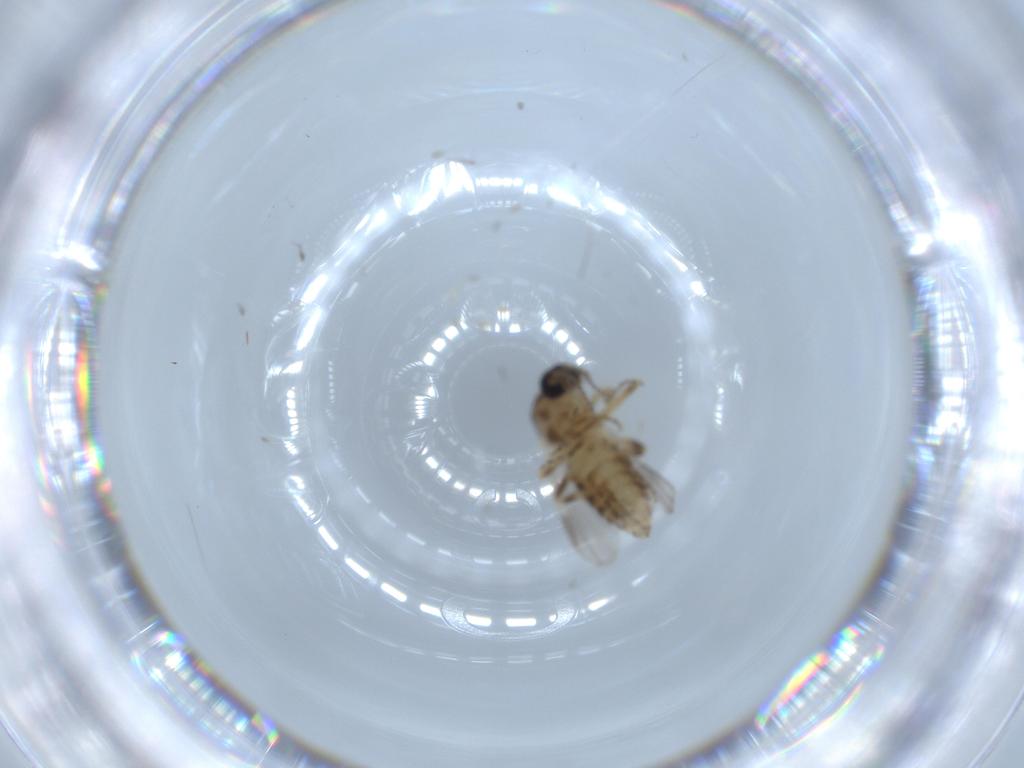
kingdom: Animalia
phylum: Arthropoda
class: Insecta
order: Diptera
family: Ceratopogonidae
